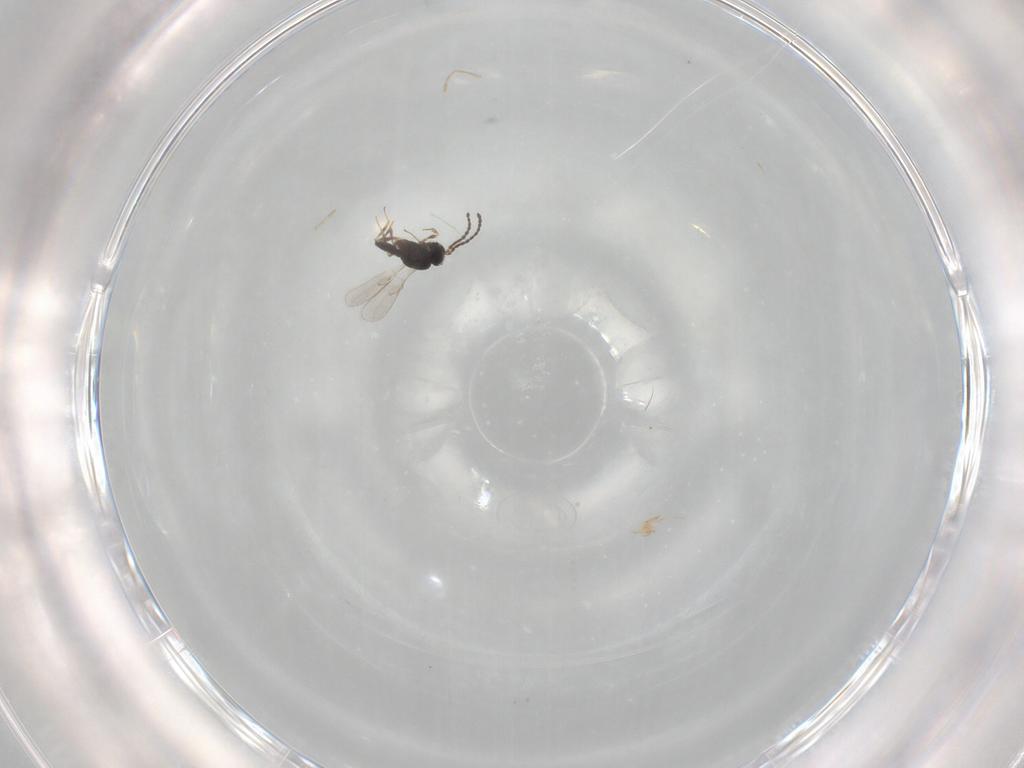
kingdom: Animalia
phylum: Arthropoda
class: Insecta
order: Hymenoptera
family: Scelionidae
